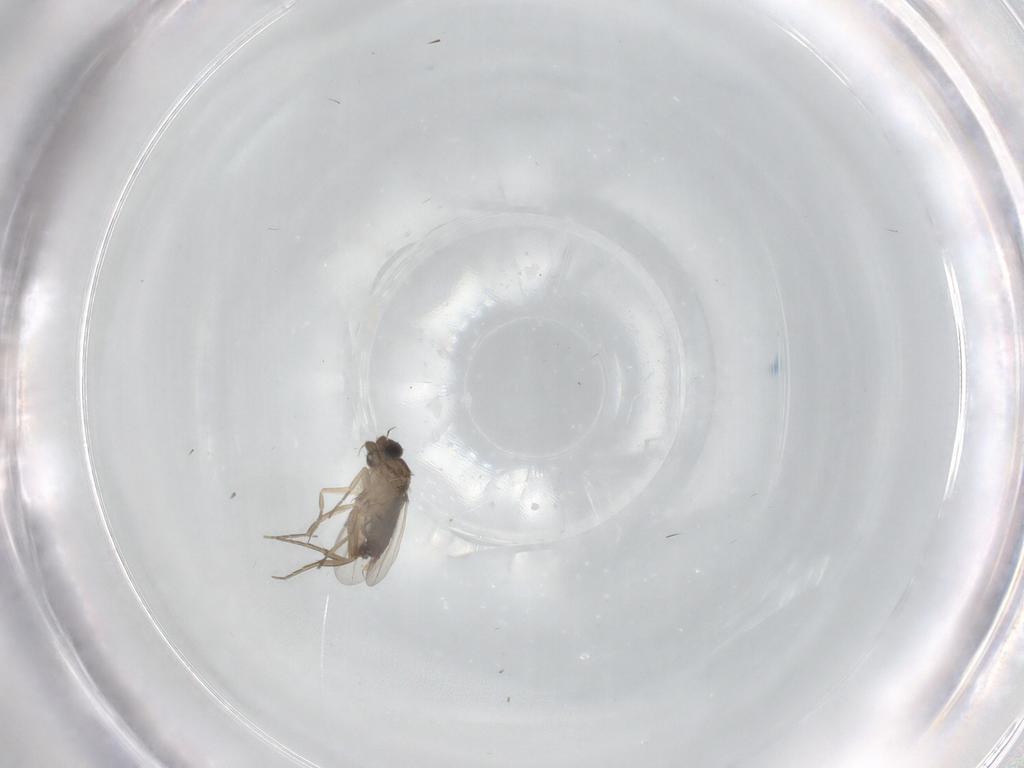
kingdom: Animalia
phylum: Arthropoda
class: Insecta
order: Diptera
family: Phoridae
